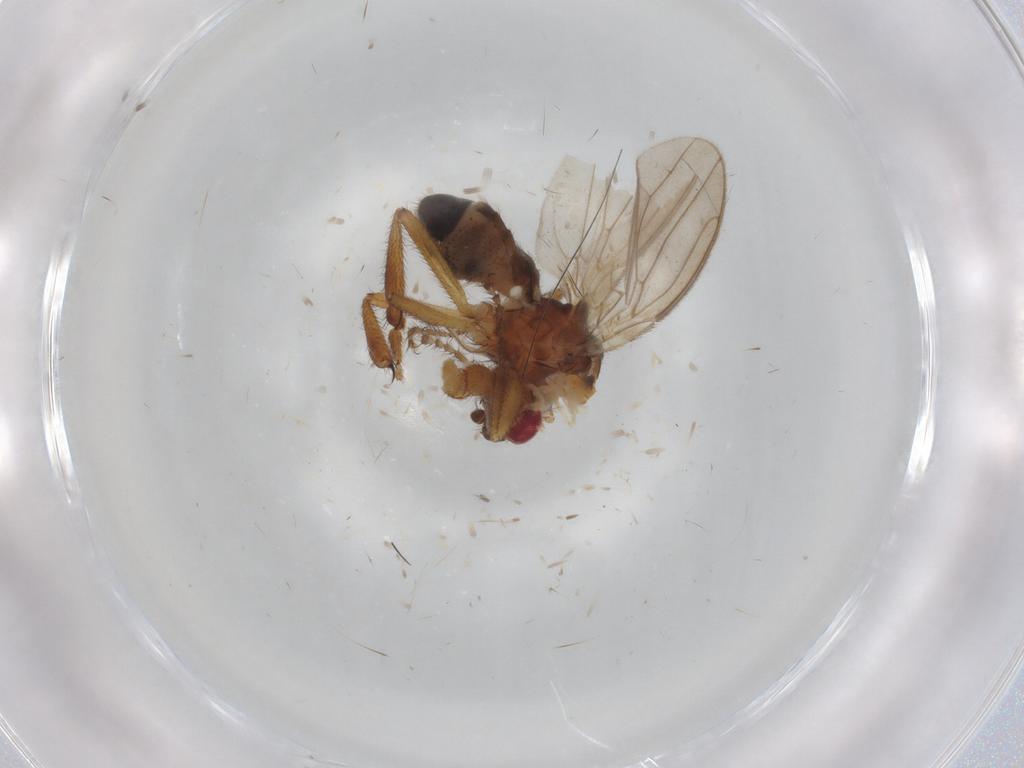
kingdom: Animalia
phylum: Arthropoda
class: Insecta
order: Diptera
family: Sphaeroceridae
